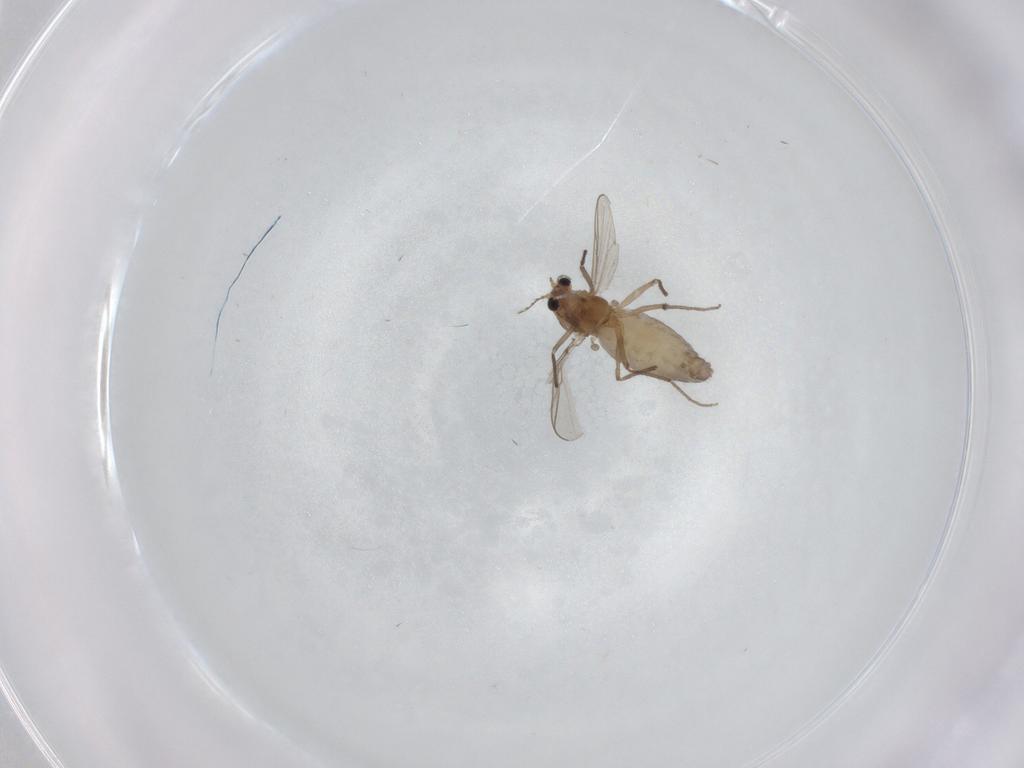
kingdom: Animalia
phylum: Arthropoda
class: Insecta
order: Diptera
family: Chironomidae
